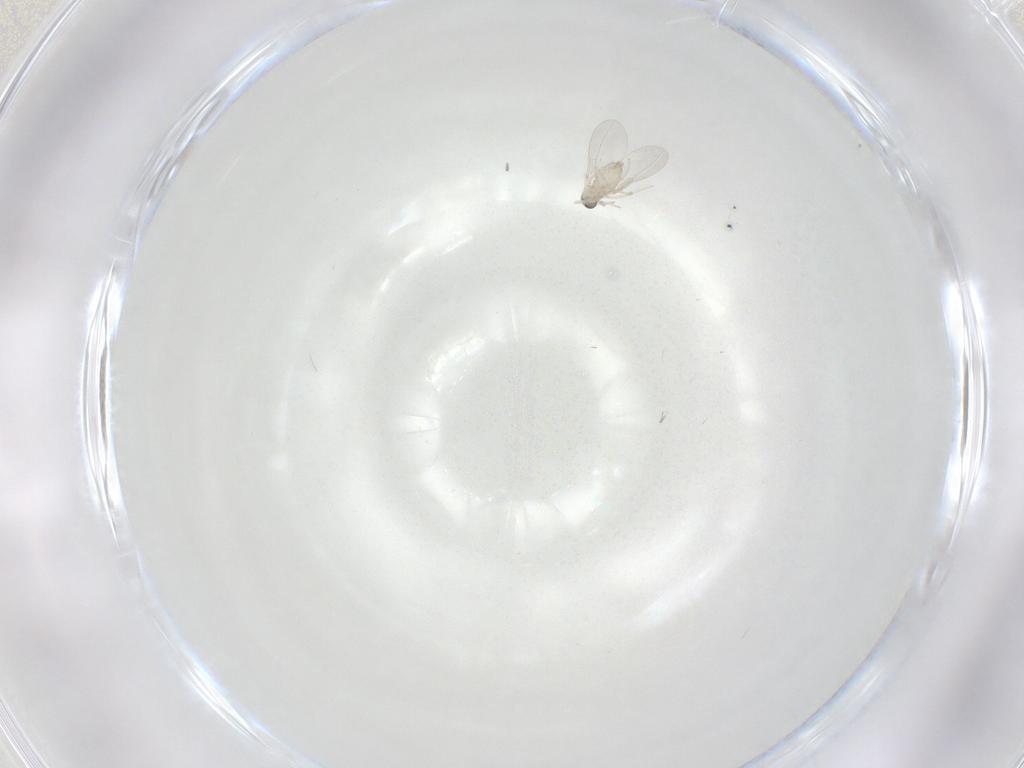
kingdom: Animalia
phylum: Arthropoda
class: Insecta
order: Diptera
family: Cecidomyiidae
